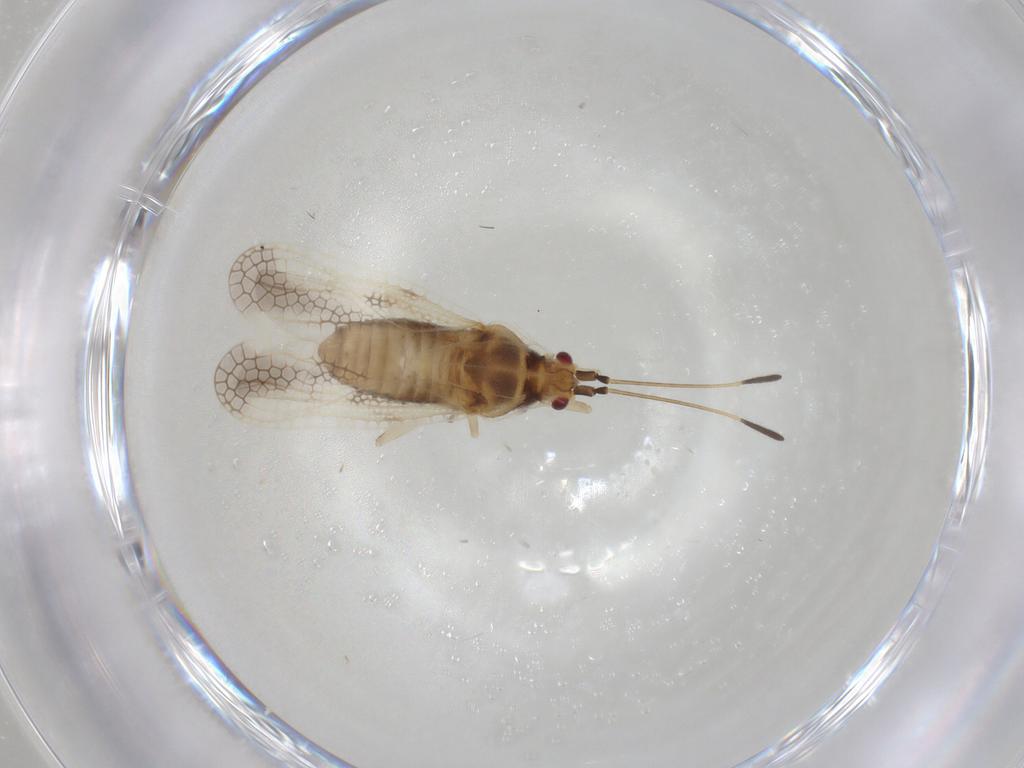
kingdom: Animalia
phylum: Arthropoda
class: Insecta
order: Hemiptera
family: Tingidae
